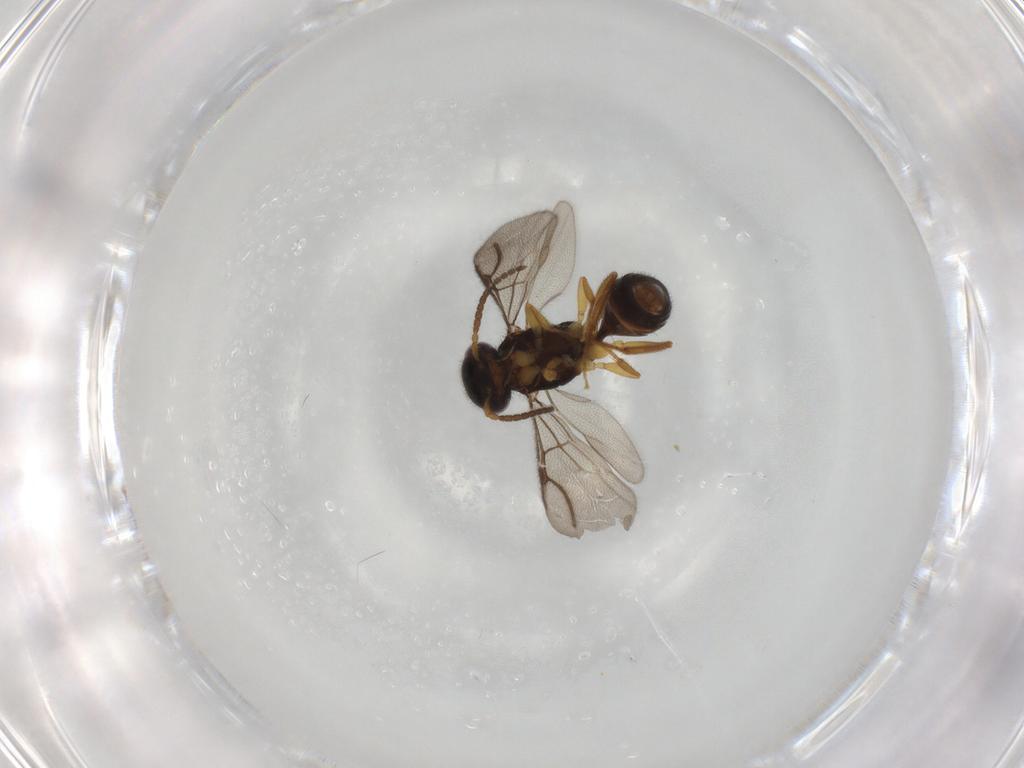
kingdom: Animalia
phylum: Arthropoda
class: Insecta
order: Hymenoptera
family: Bethylidae
